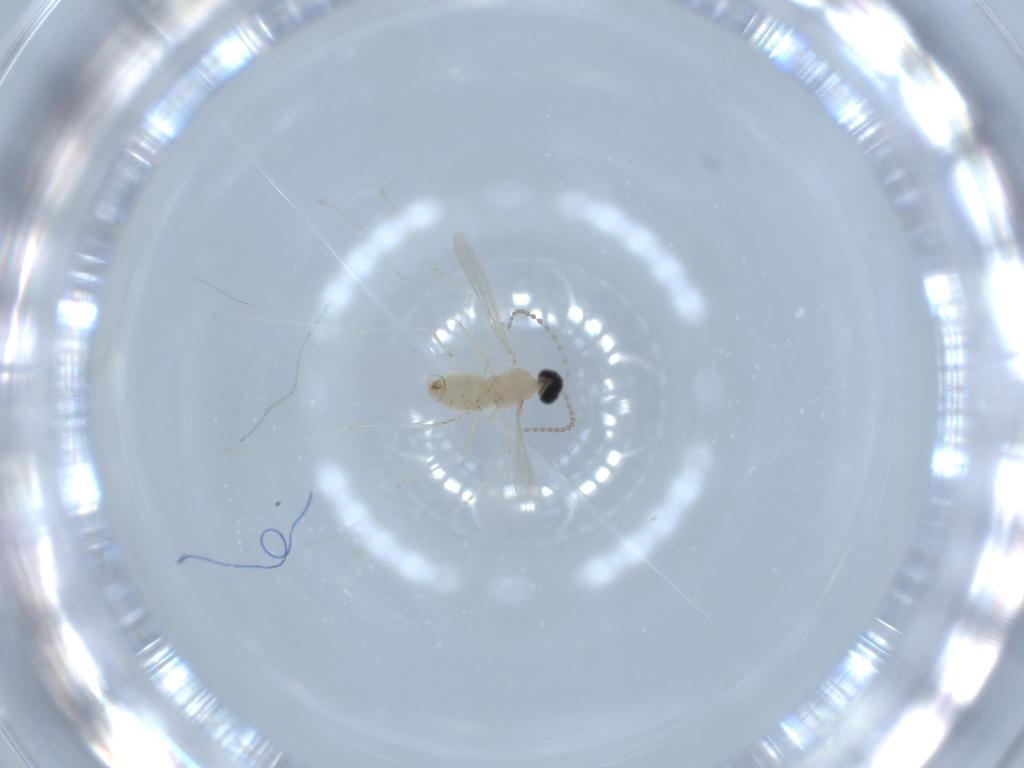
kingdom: Animalia
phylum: Arthropoda
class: Insecta
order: Diptera
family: Cecidomyiidae
